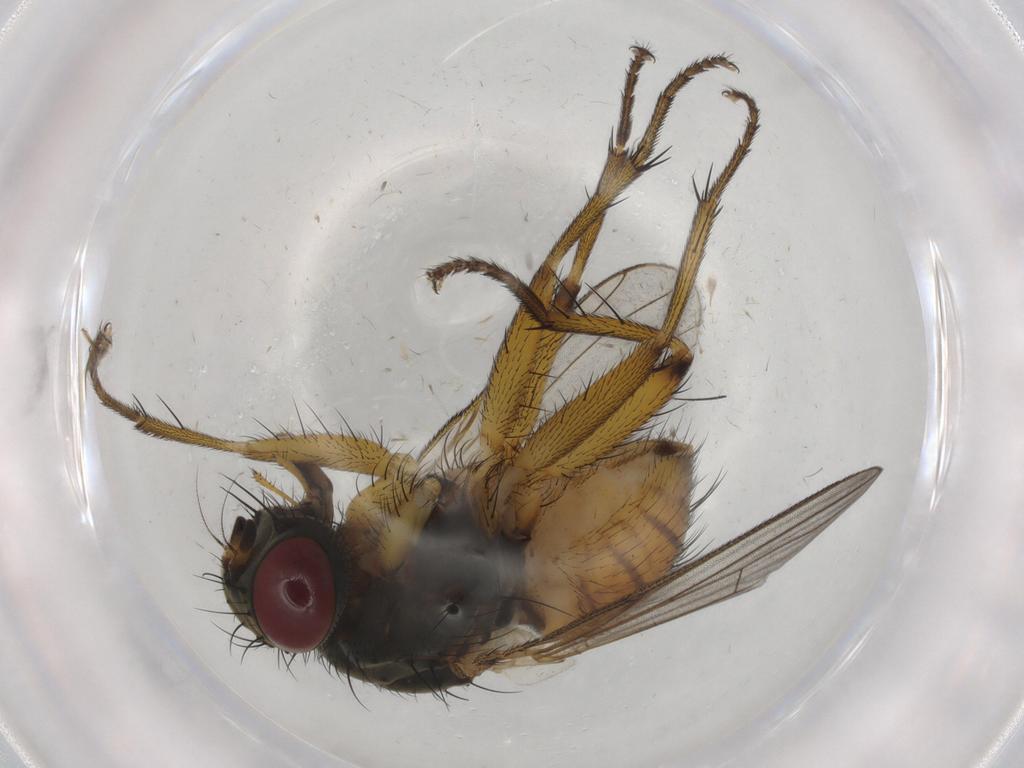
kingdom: Animalia
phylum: Arthropoda
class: Insecta
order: Diptera
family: Muscidae
